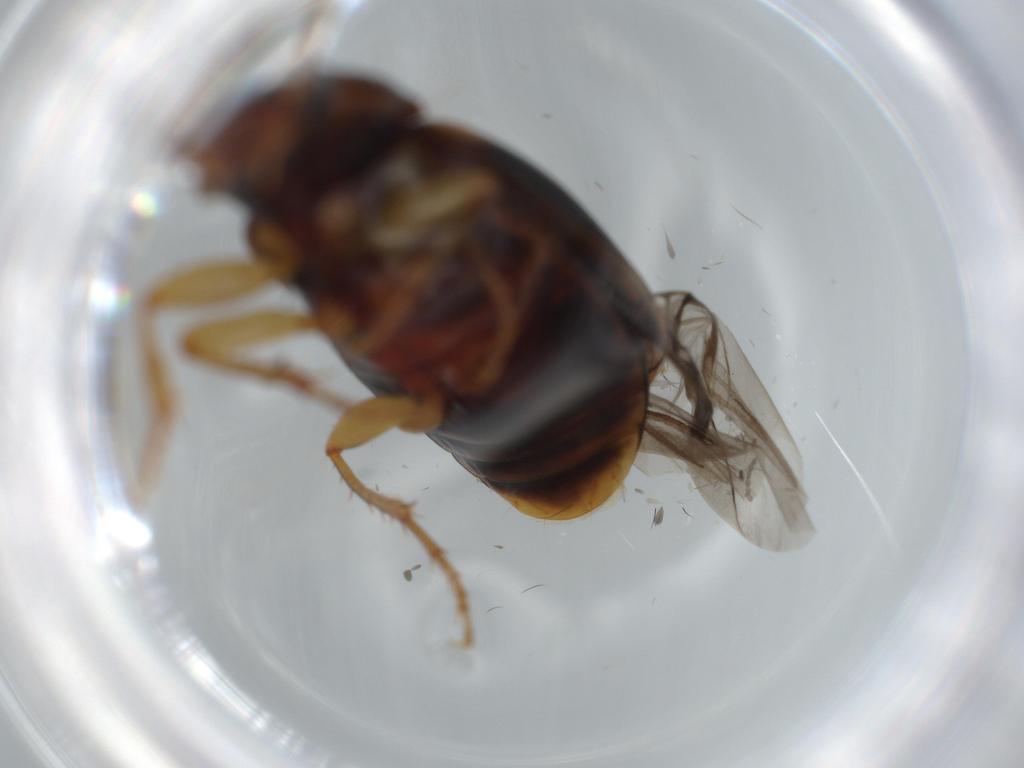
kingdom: Animalia
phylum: Arthropoda
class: Insecta
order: Coleoptera
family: Carabidae
